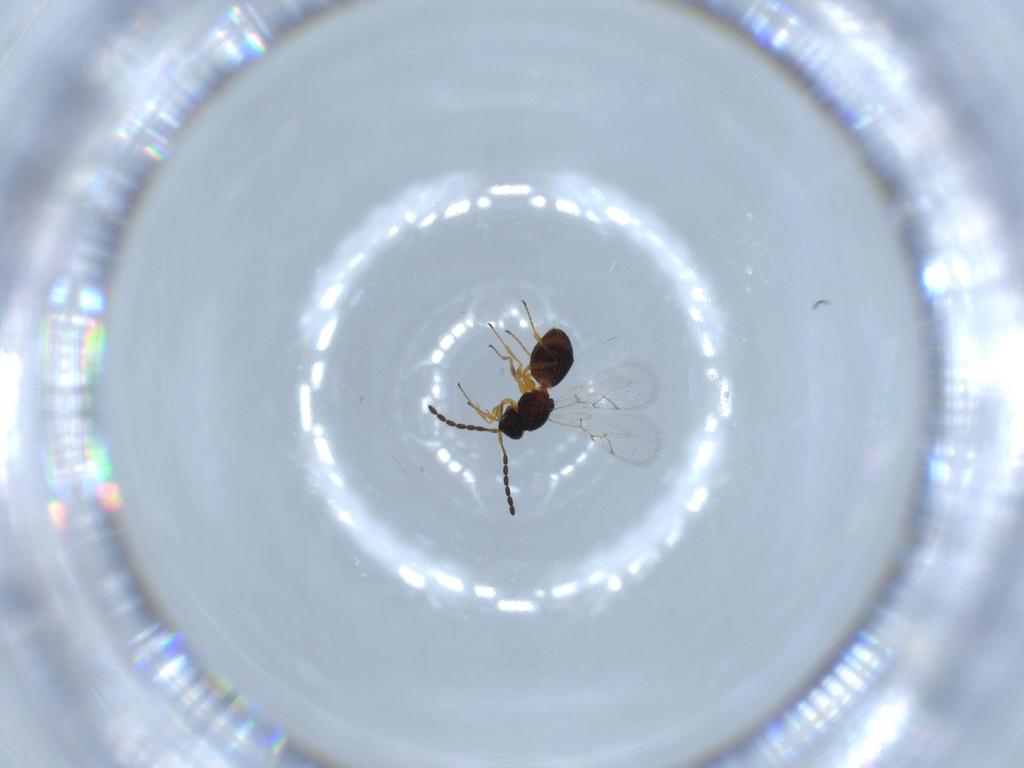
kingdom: Animalia
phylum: Arthropoda
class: Insecta
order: Hymenoptera
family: Figitidae
